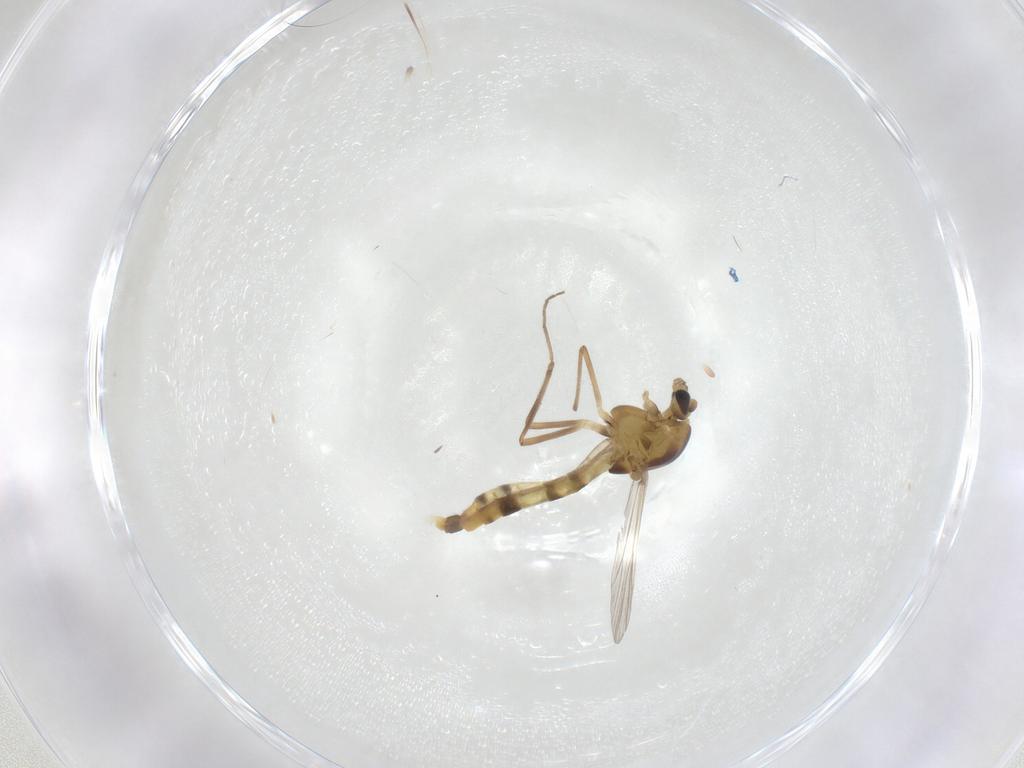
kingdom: Animalia
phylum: Arthropoda
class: Insecta
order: Diptera
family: Chironomidae
